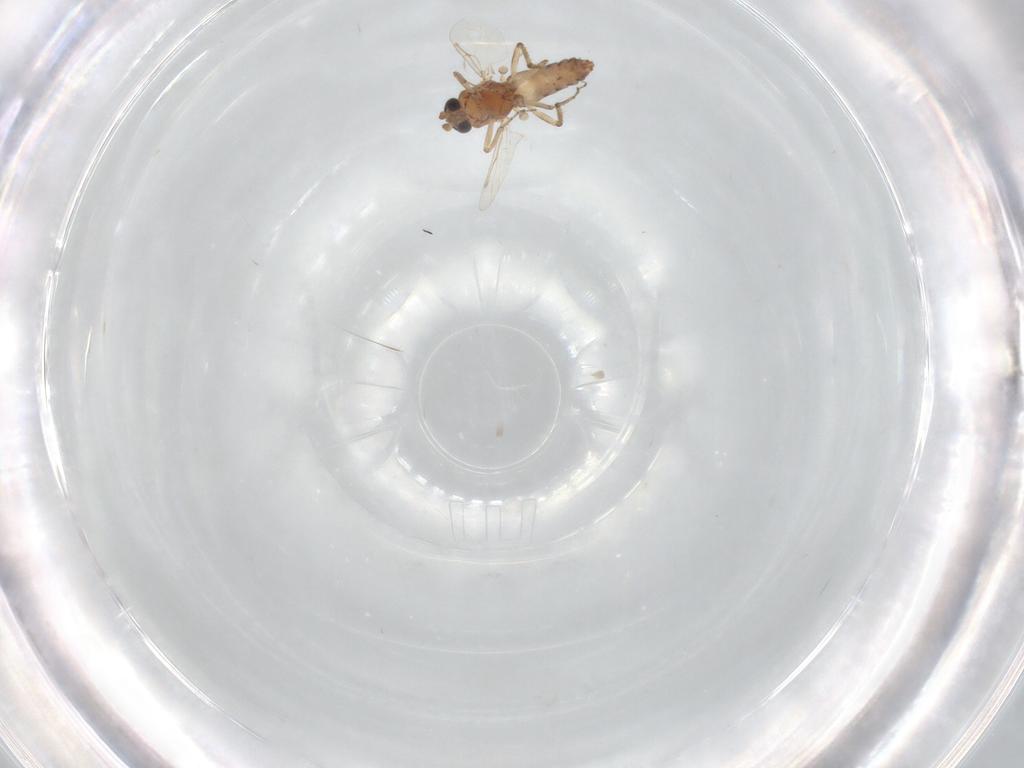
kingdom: Animalia
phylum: Arthropoda
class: Insecta
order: Diptera
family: Ceratopogonidae
